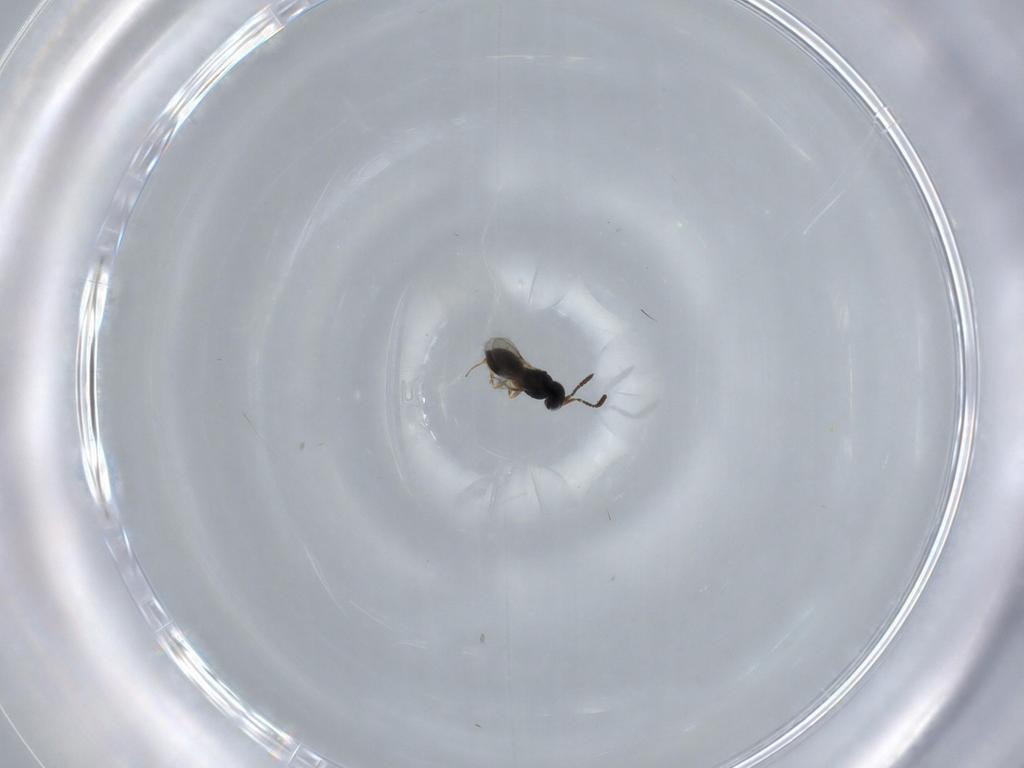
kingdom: Animalia
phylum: Arthropoda
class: Insecta
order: Hymenoptera
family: Scelionidae
